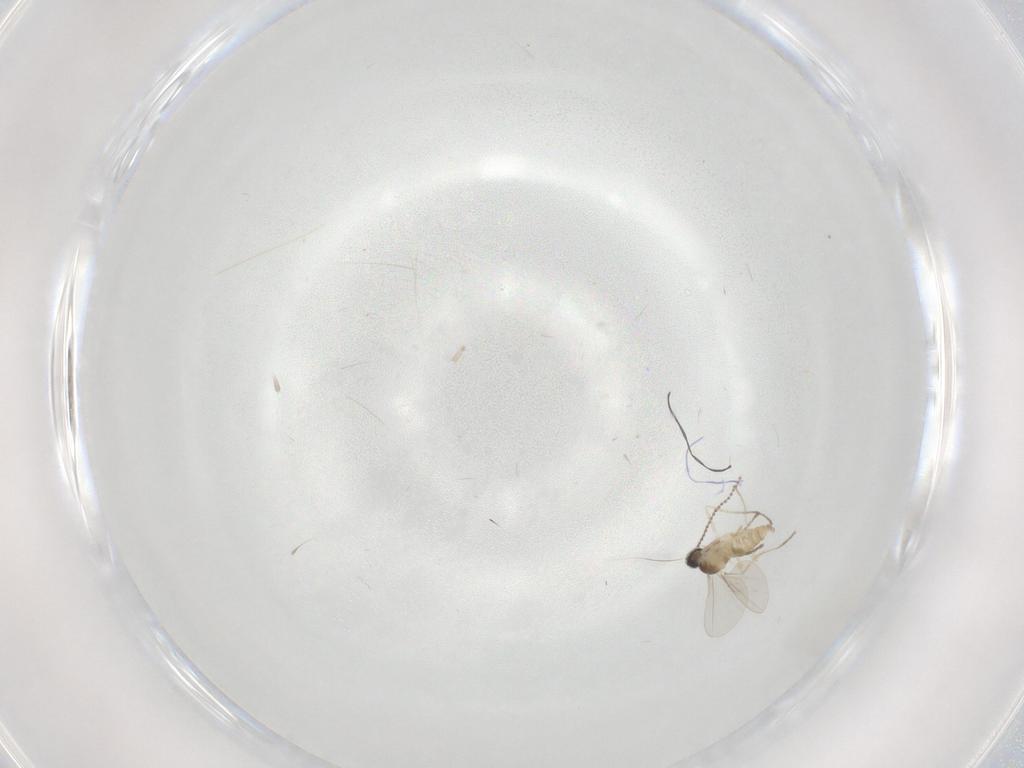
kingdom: Animalia
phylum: Arthropoda
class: Insecta
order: Diptera
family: Cecidomyiidae
